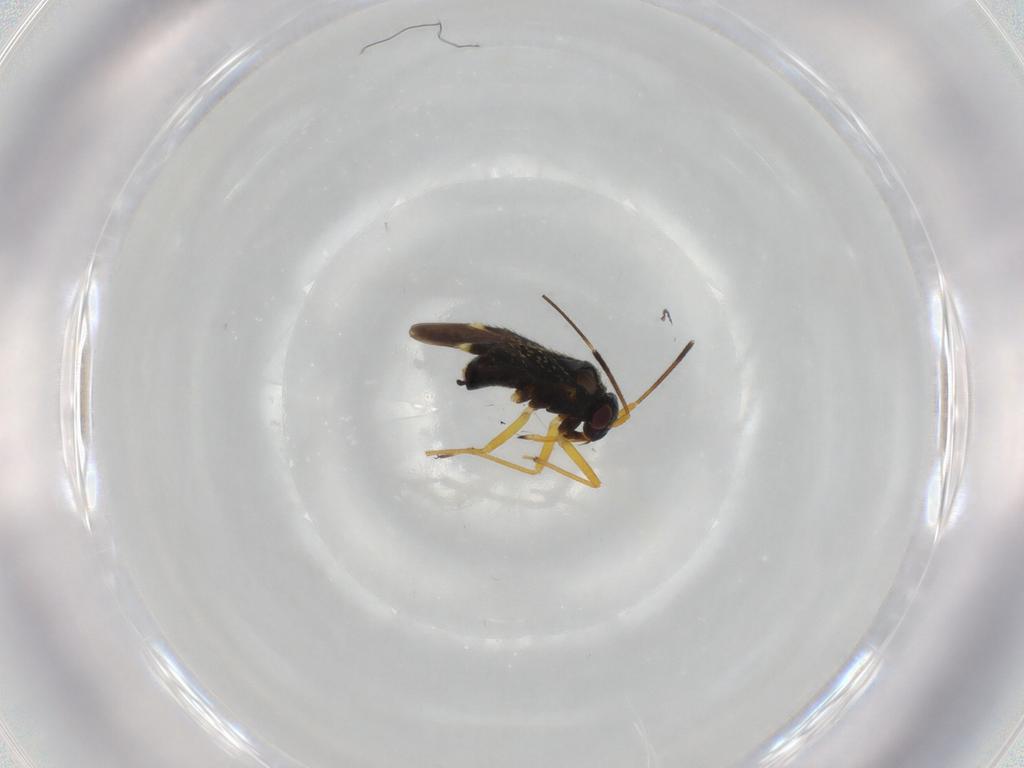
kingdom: Animalia
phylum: Arthropoda
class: Insecta
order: Hemiptera
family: Miridae
